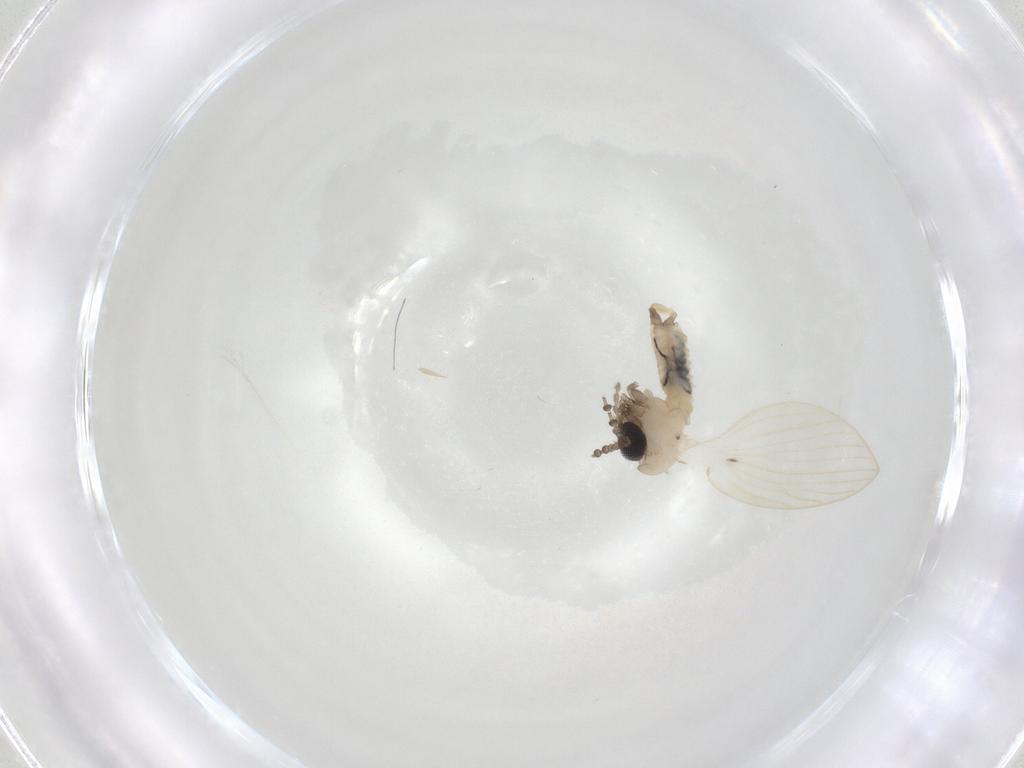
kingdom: Animalia
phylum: Arthropoda
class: Insecta
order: Diptera
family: Psychodidae
